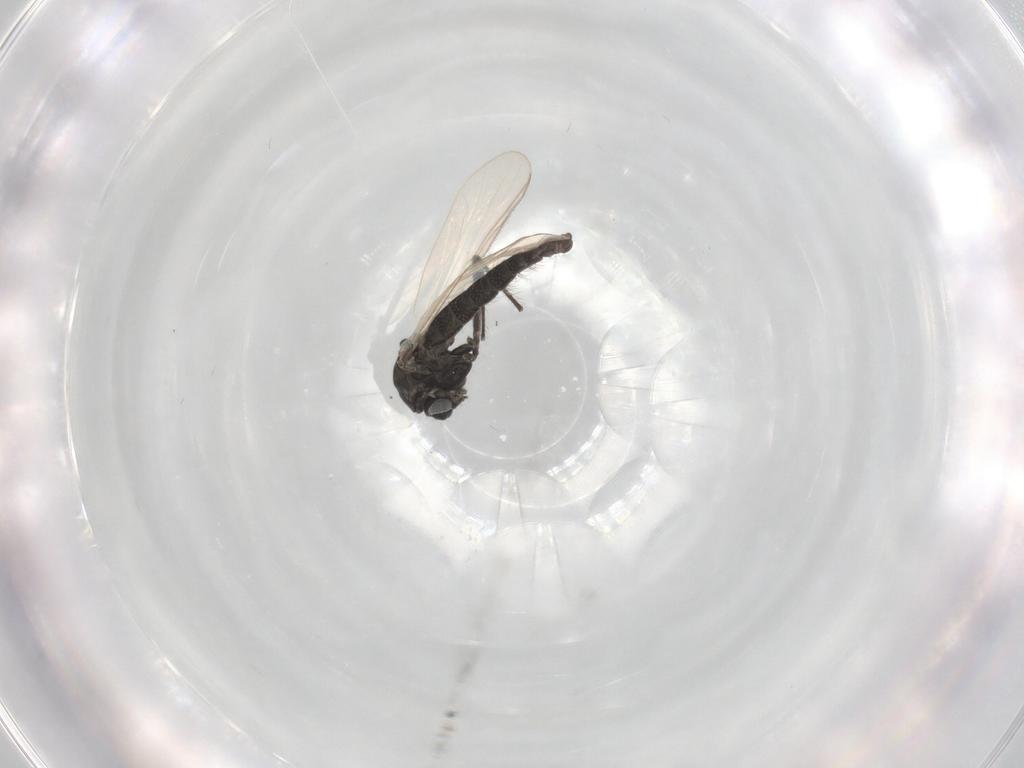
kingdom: Animalia
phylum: Arthropoda
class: Insecta
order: Diptera
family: Chironomidae
